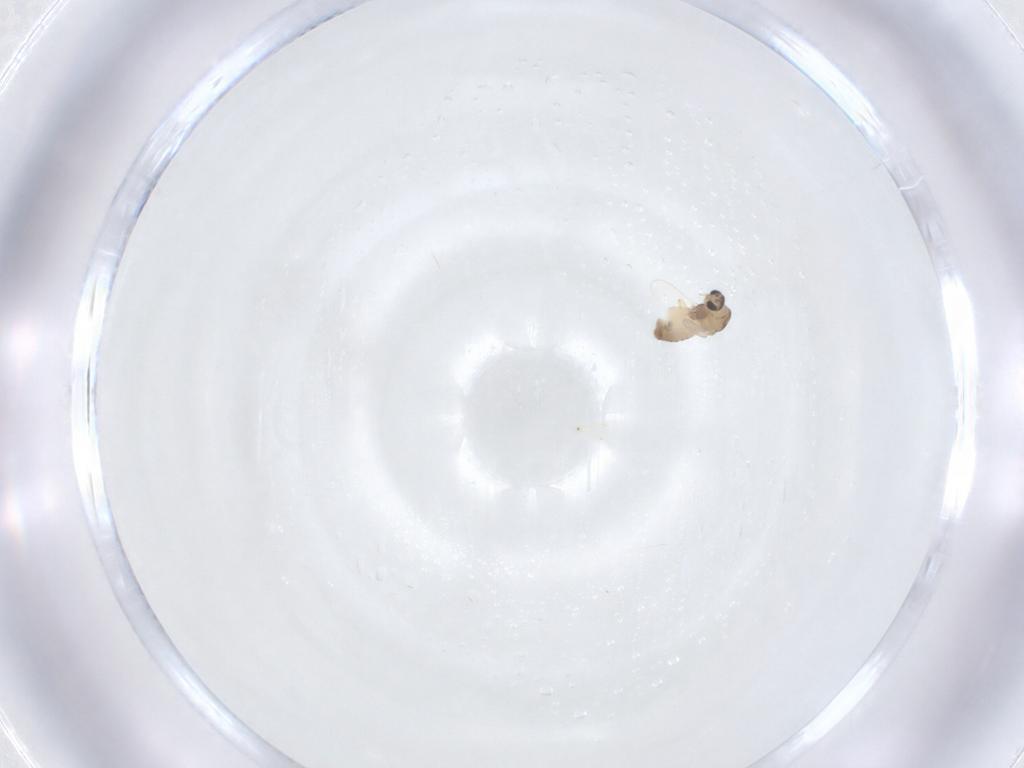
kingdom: Animalia
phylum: Arthropoda
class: Insecta
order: Diptera
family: Chironomidae
